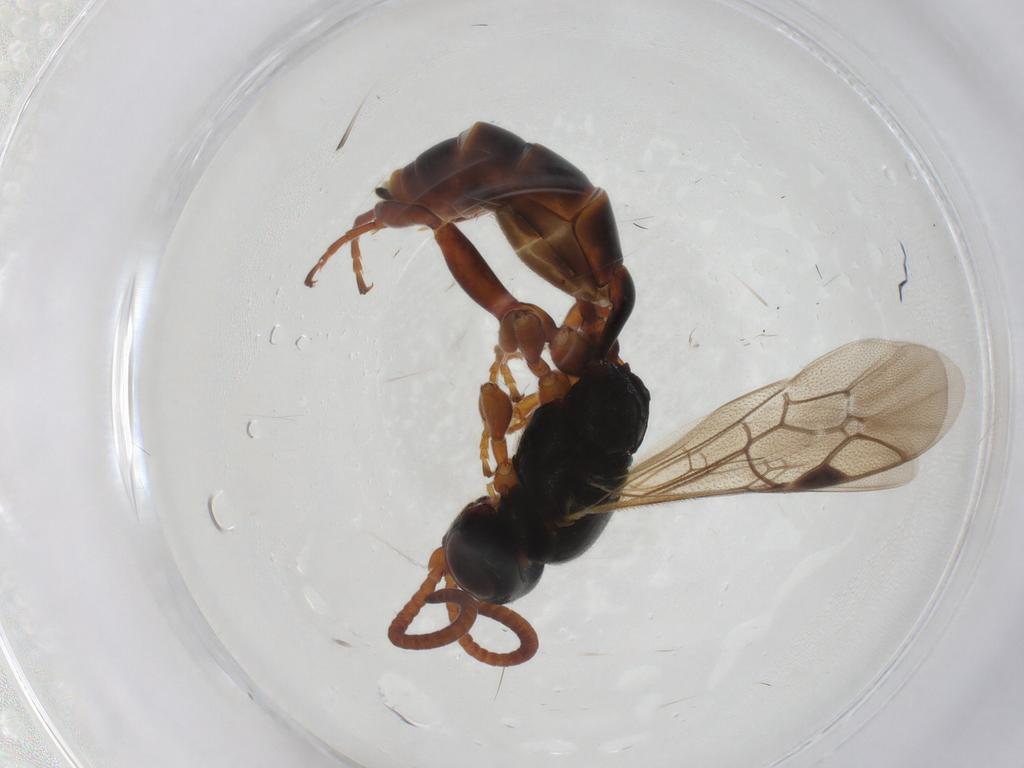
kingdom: Animalia
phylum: Arthropoda
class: Insecta
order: Hymenoptera
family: Ichneumonidae
